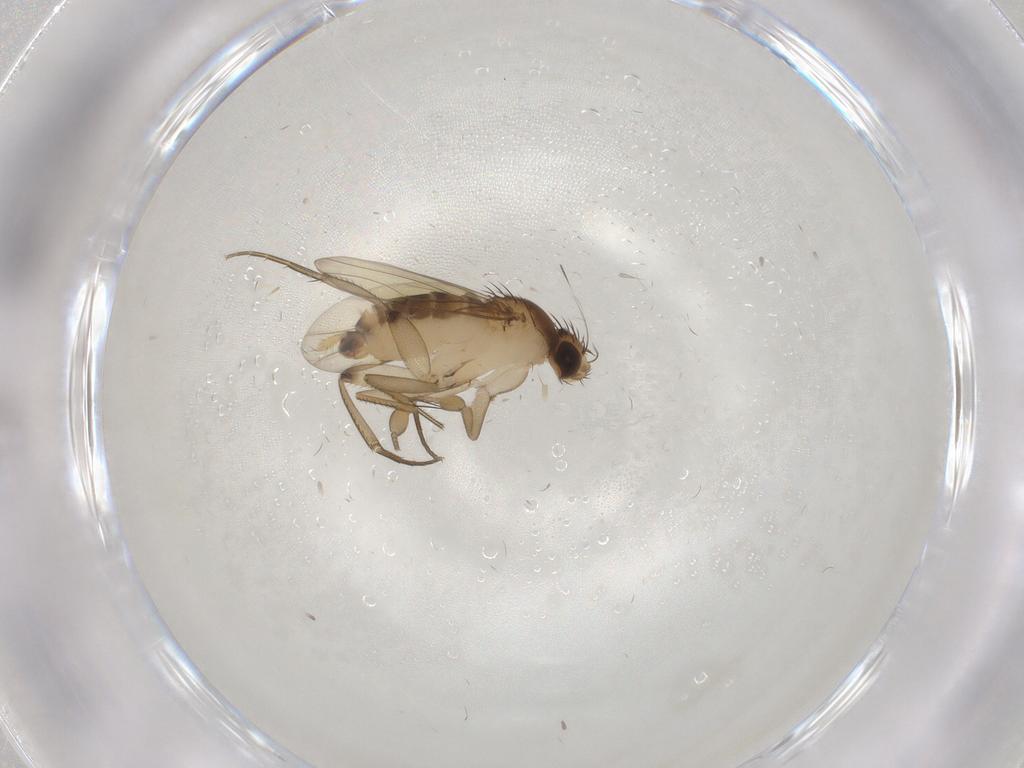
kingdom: Animalia
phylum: Arthropoda
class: Insecta
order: Diptera
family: Phoridae
